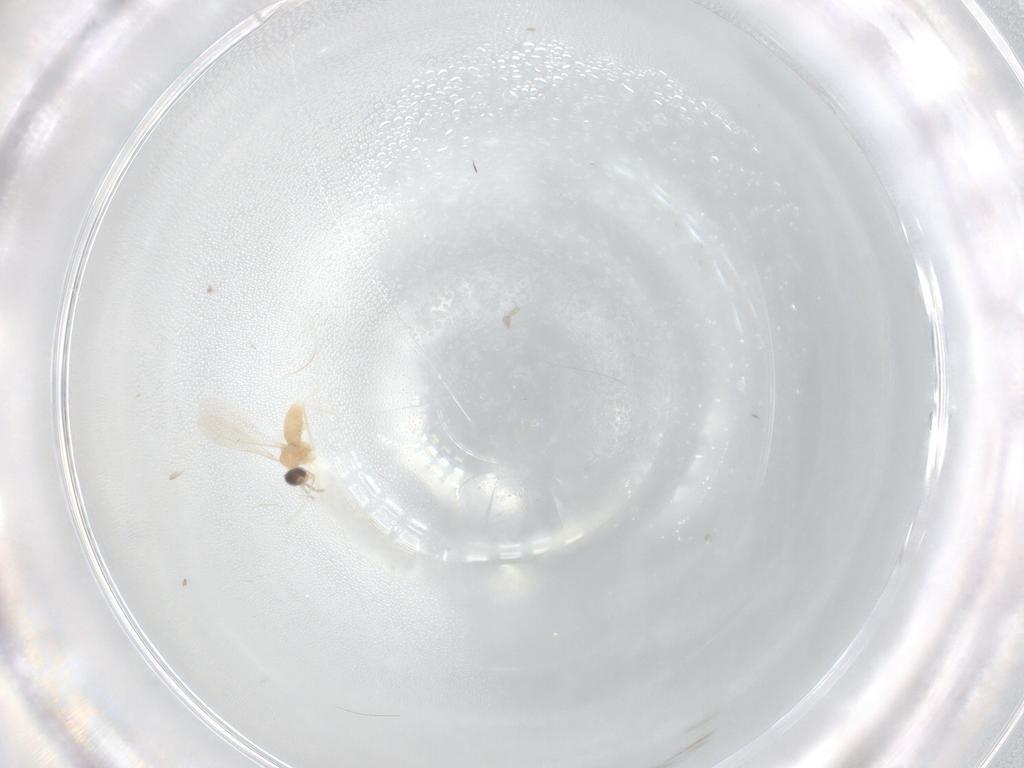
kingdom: Animalia
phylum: Arthropoda
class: Insecta
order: Diptera
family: Cecidomyiidae
